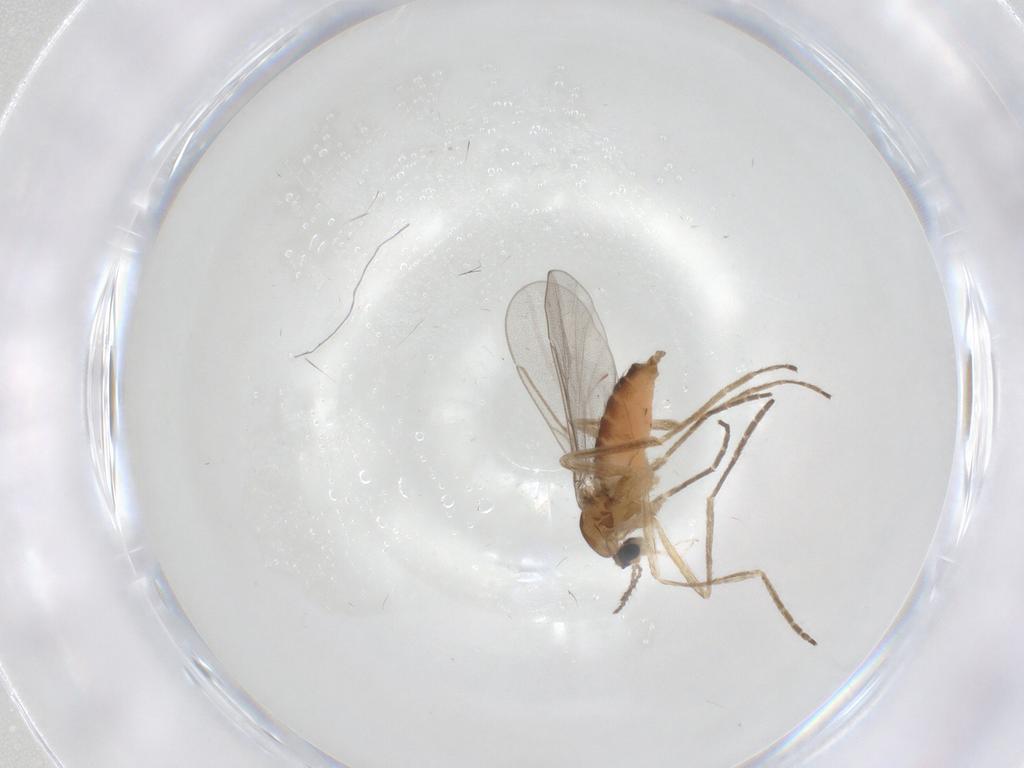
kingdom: Animalia
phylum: Arthropoda
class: Insecta
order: Diptera
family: Cecidomyiidae
